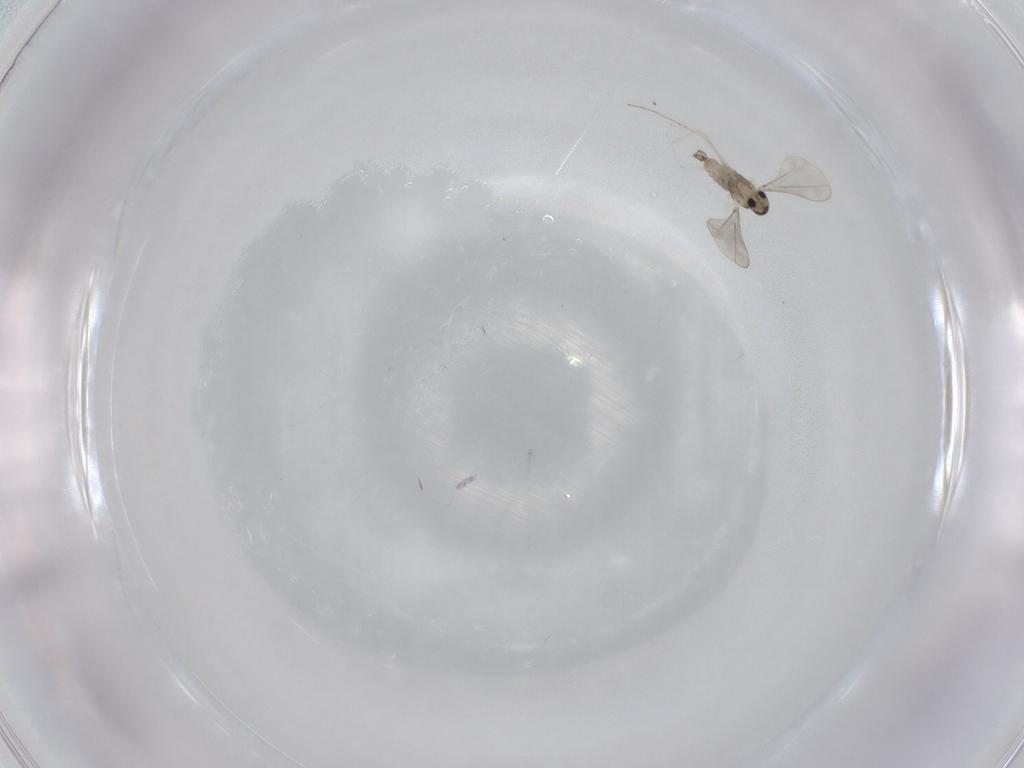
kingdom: Animalia
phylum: Arthropoda
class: Insecta
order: Diptera
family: Cecidomyiidae
